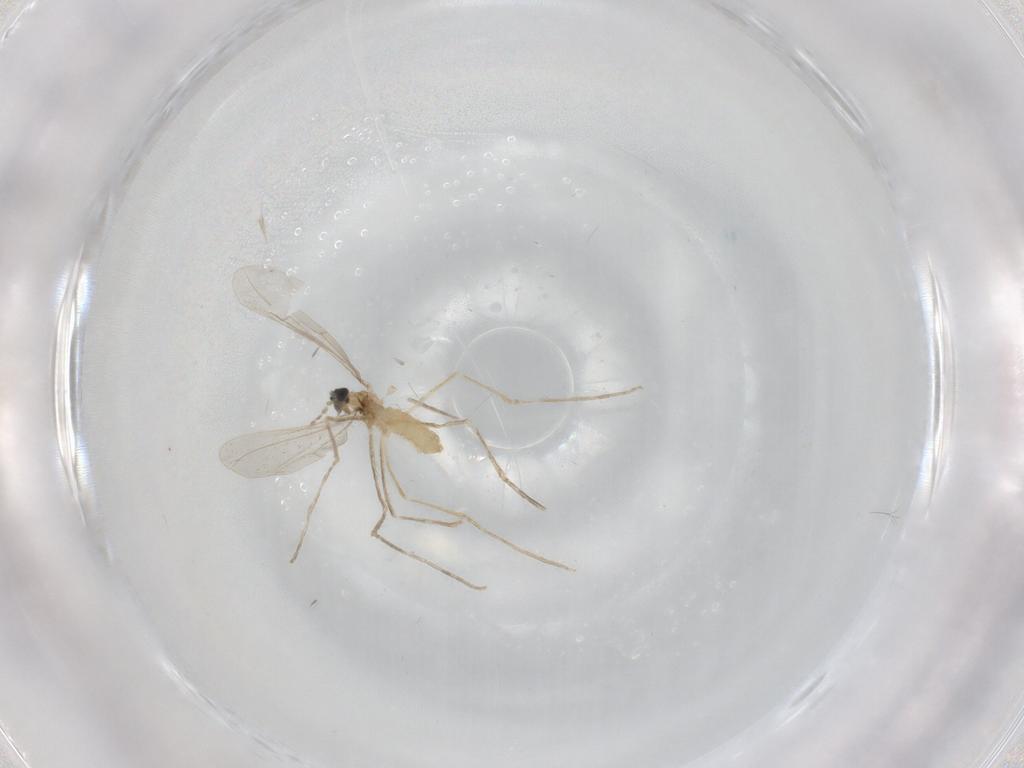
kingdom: Animalia
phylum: Arthropoda
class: Insecta
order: Diptera
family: Cecidomyiidae
